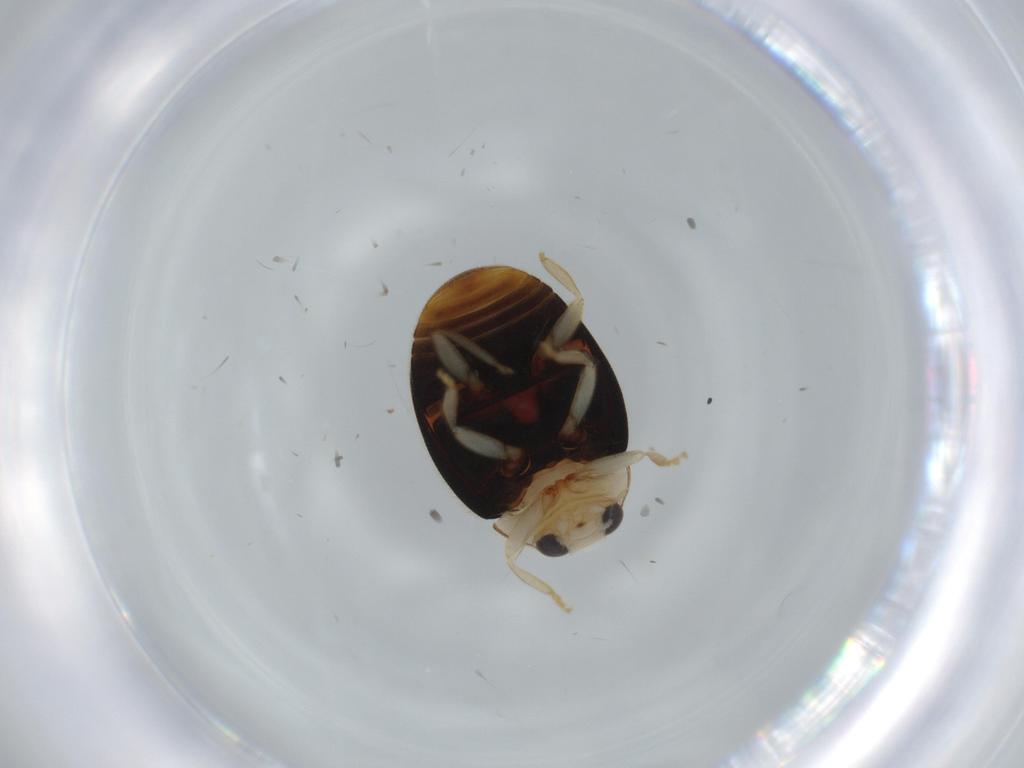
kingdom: Animalia
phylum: Arthropoda
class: Insecta
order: Coleoptera
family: Coccinellidae
